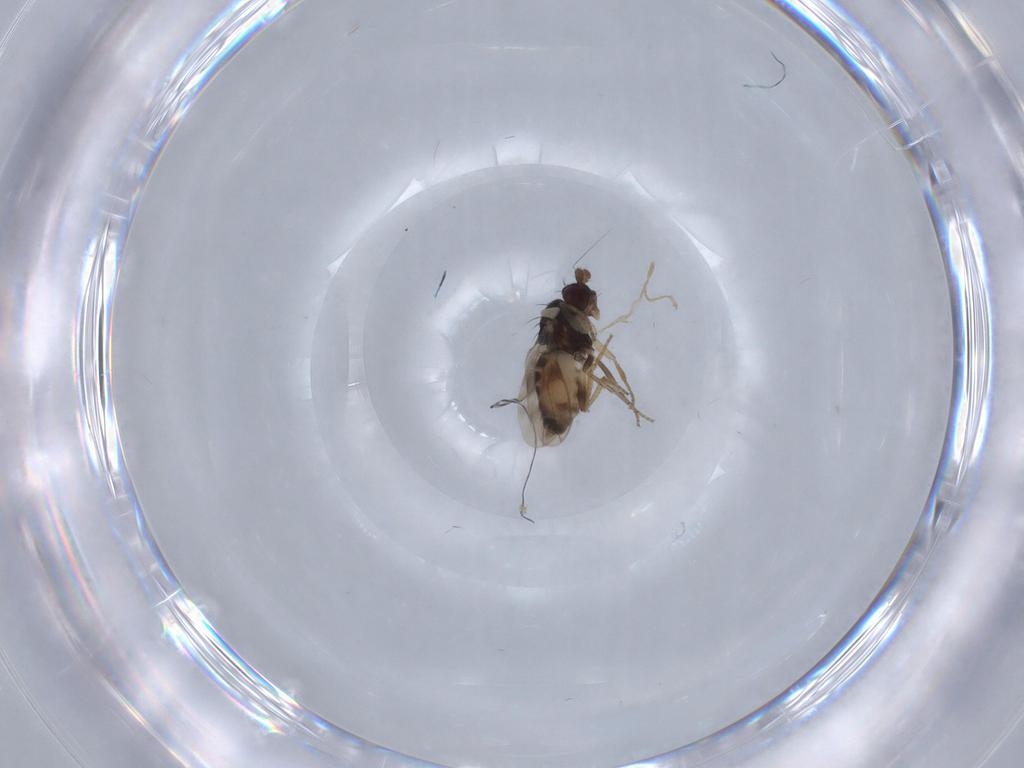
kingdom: Animalia
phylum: Arthropoda
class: Insecta
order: Diptera
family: Sphaeroceridae
